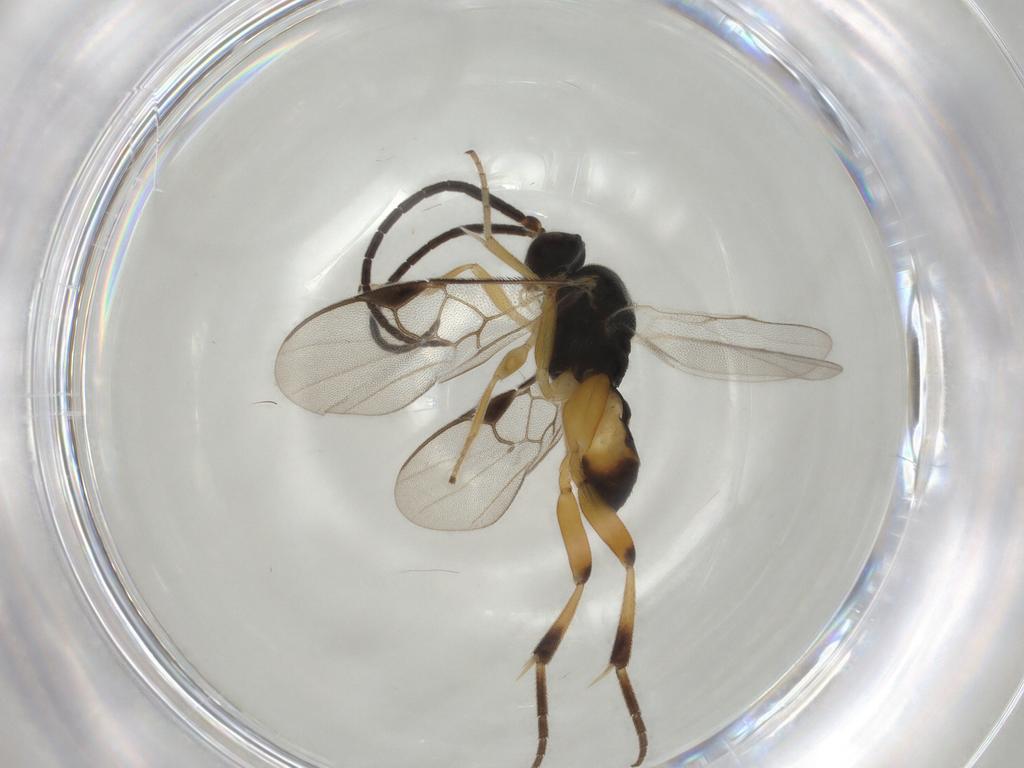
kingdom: Animalia
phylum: Arthropoda
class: Insecta
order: Hymenoptera
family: Braconidae
